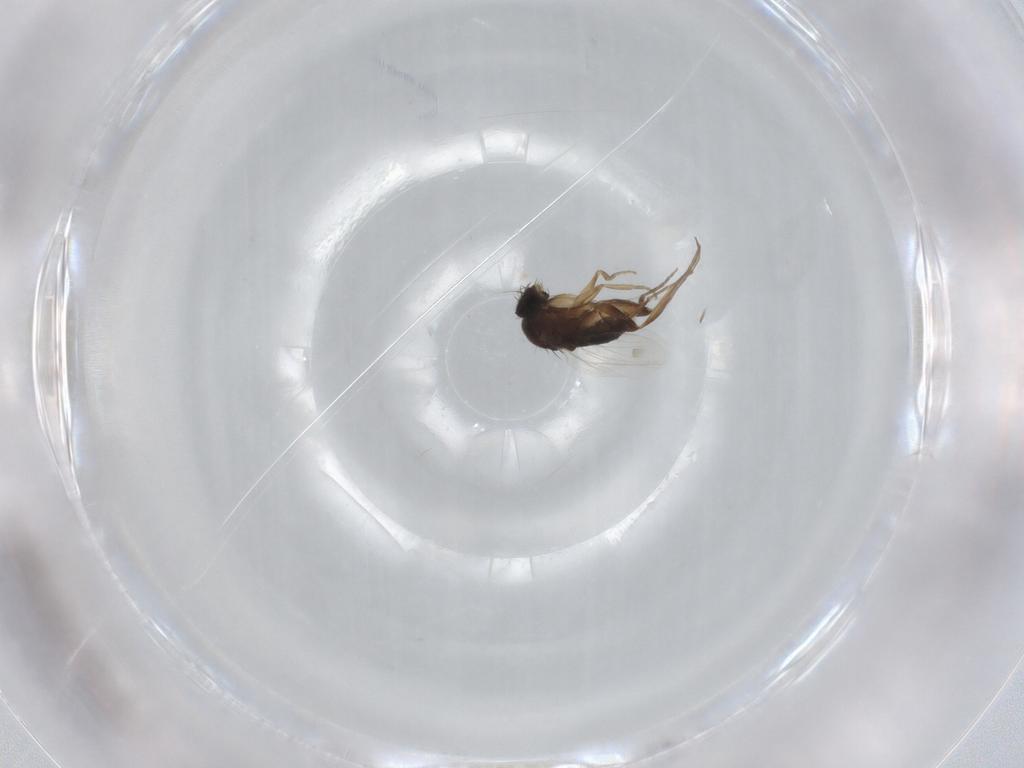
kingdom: Animalia
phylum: Arthropoda
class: Insecta
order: Diptera
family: Phoridae
